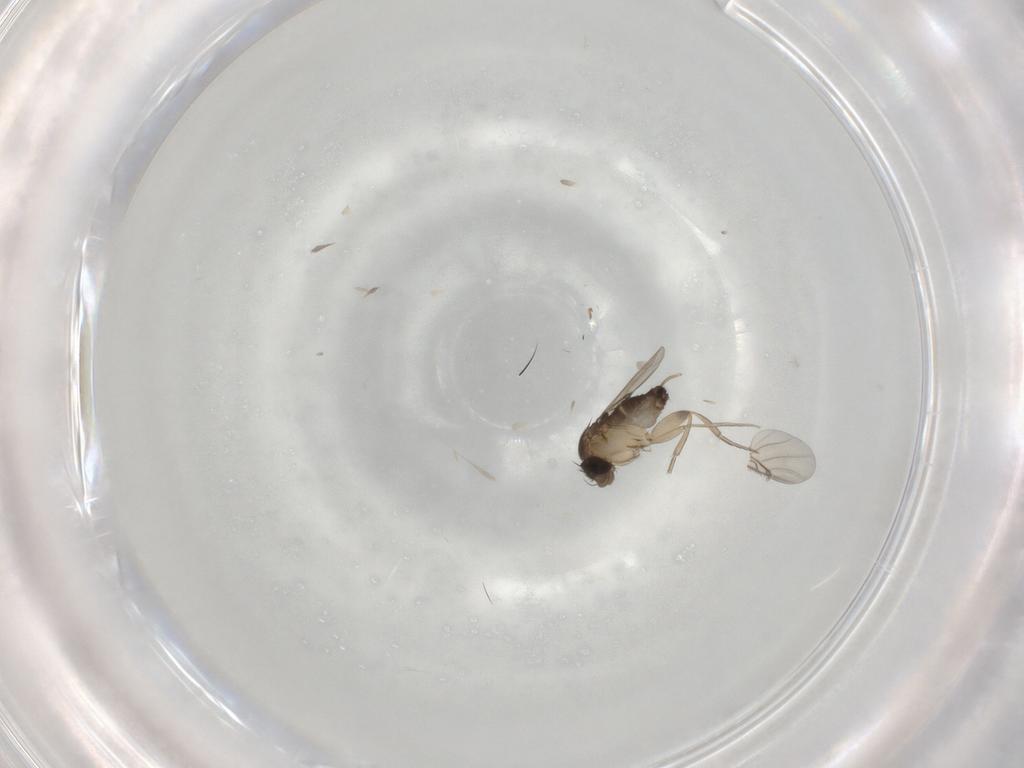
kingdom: Animalia
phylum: Arthropoda
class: Insecta
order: Diptera
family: Phoridae
